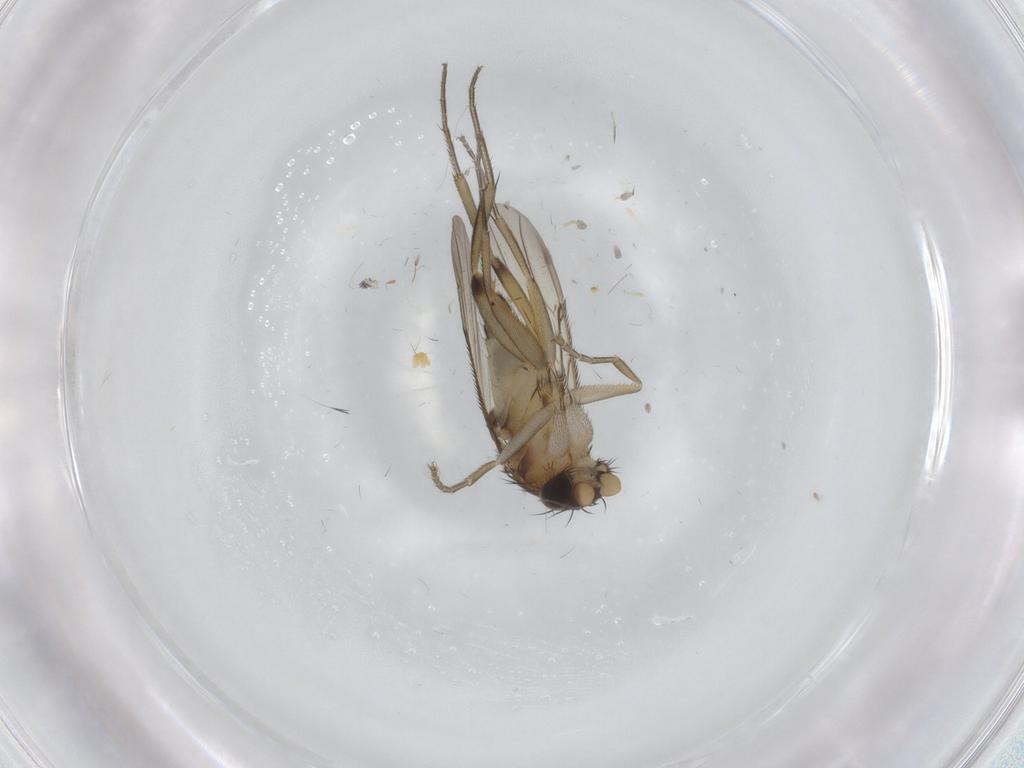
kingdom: Animalia
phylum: Arthropoda
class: Insecta
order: Diptera
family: Phoridae
